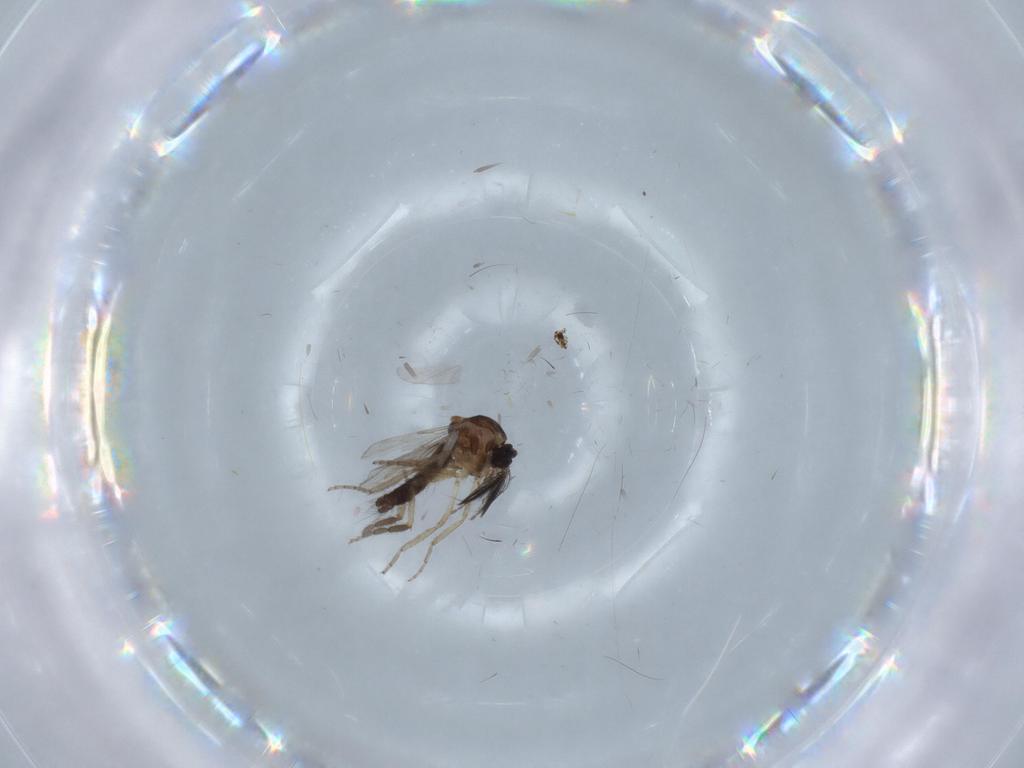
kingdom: Animalia
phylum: Arthropoda
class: Insecta
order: Diptera
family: Ceratopogonidae
